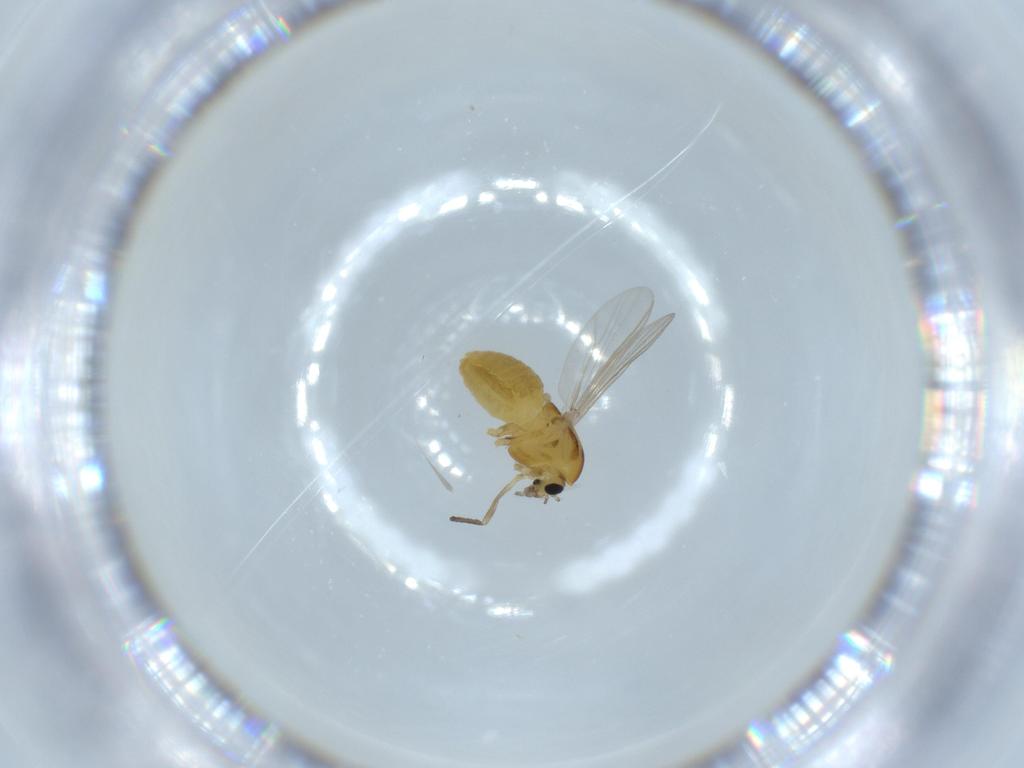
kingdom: Animalia
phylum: Arthropoda
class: Insecta
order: Diptera
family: Chironomidae
